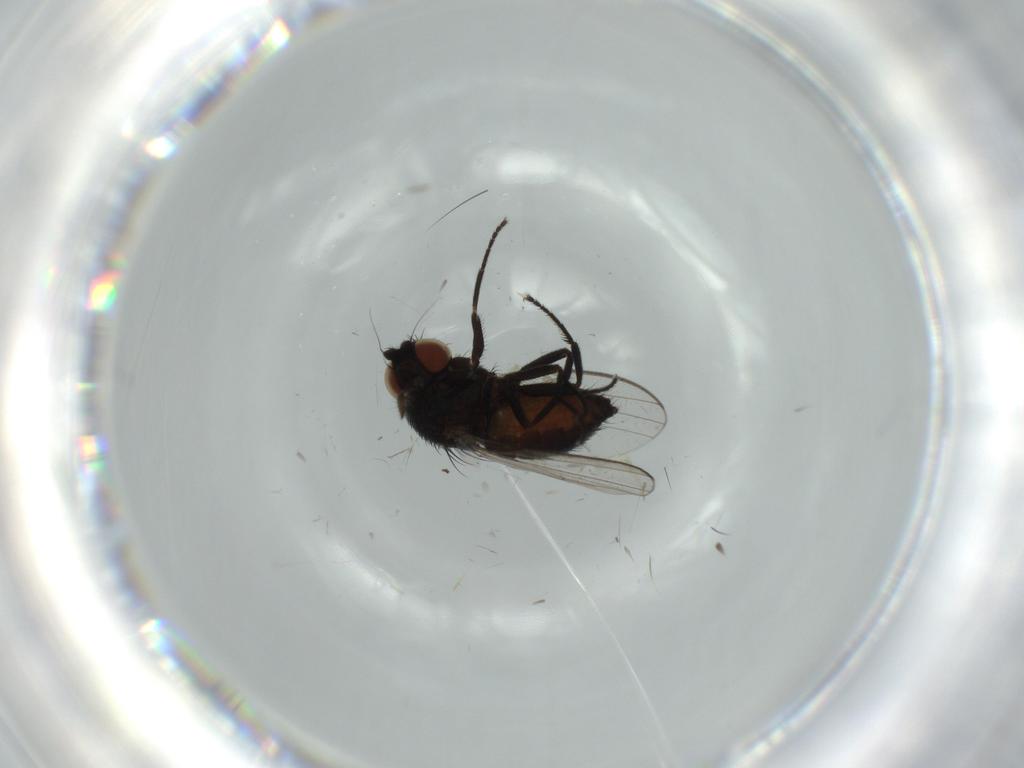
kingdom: Animalia
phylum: Arthropoda
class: Insecta
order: Diptera
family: Milichiidae
